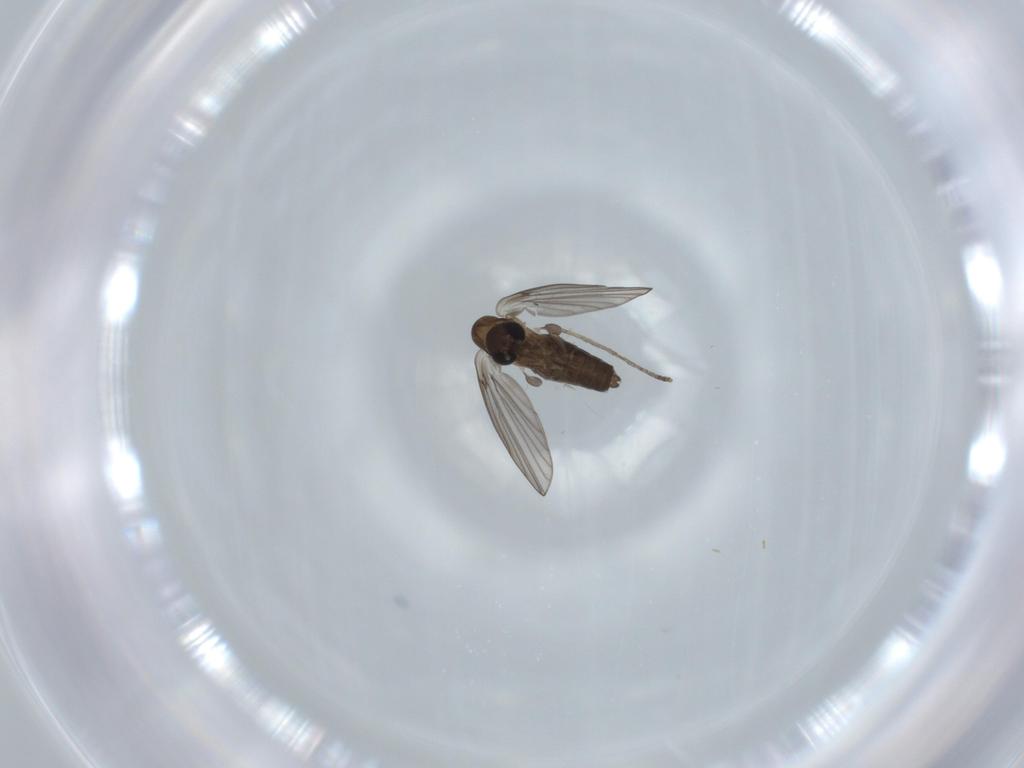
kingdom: Animalia
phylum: Arthropoda
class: Insecta
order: Diptera
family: Psychodidae
